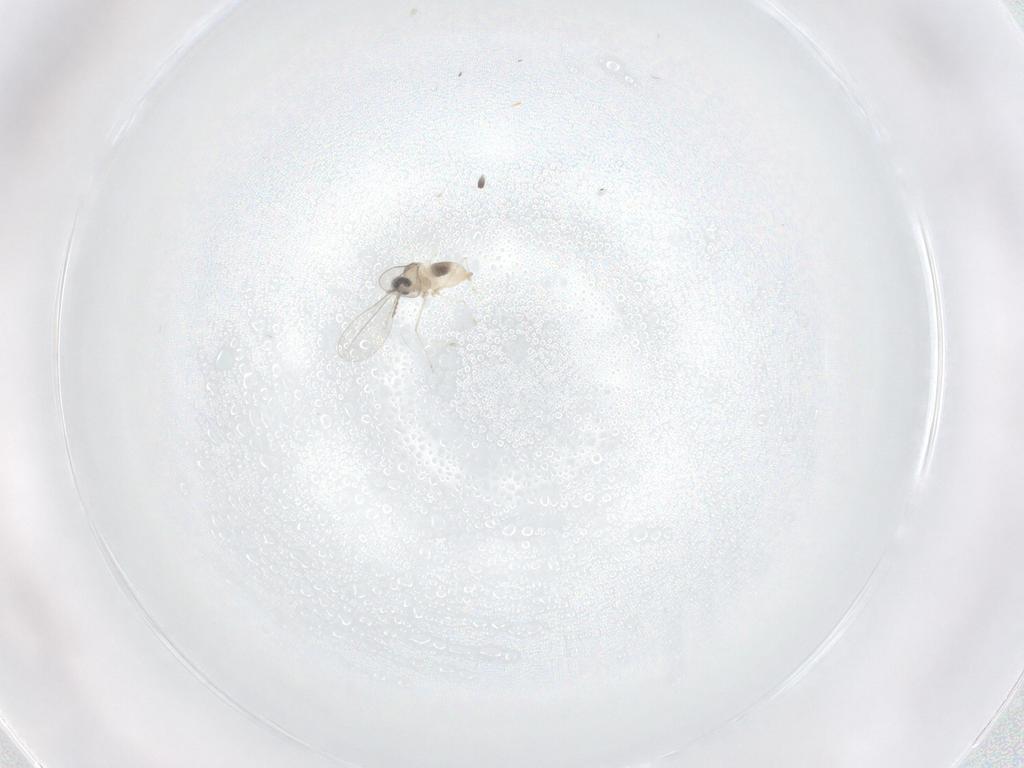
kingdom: Animalia
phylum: Arthropoda
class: Insecta
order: Diptera
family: Cecidomyiidae
